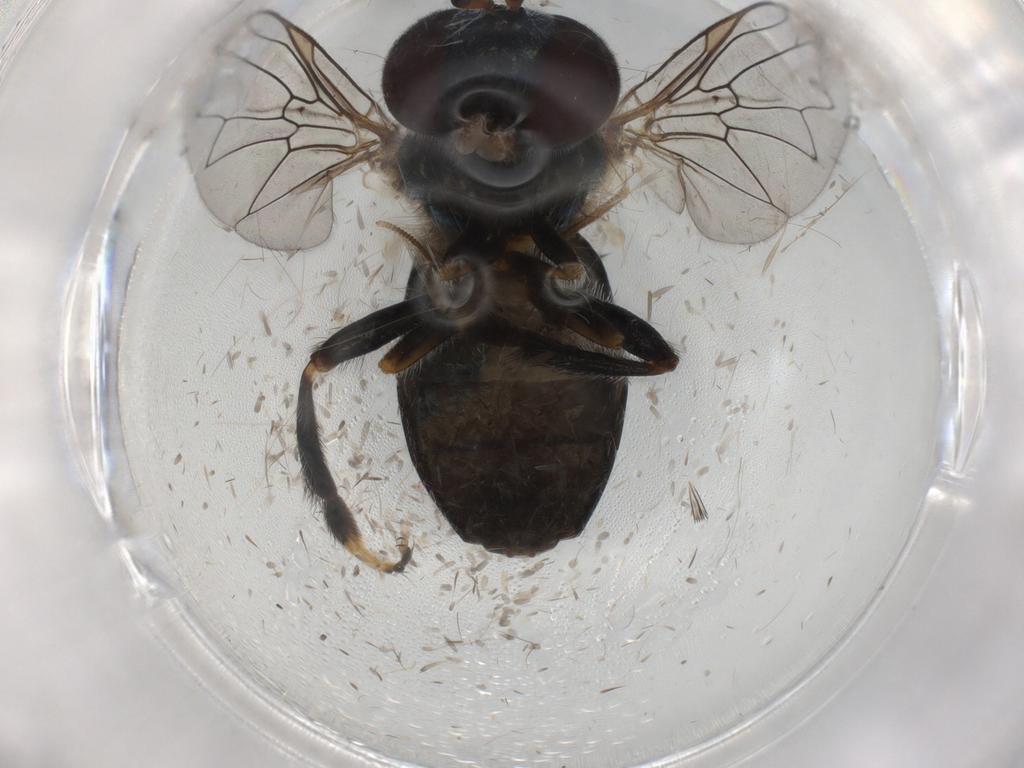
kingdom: Animalia
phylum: Arthropoda
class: Insecta
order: Diptera
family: Syrphidae
